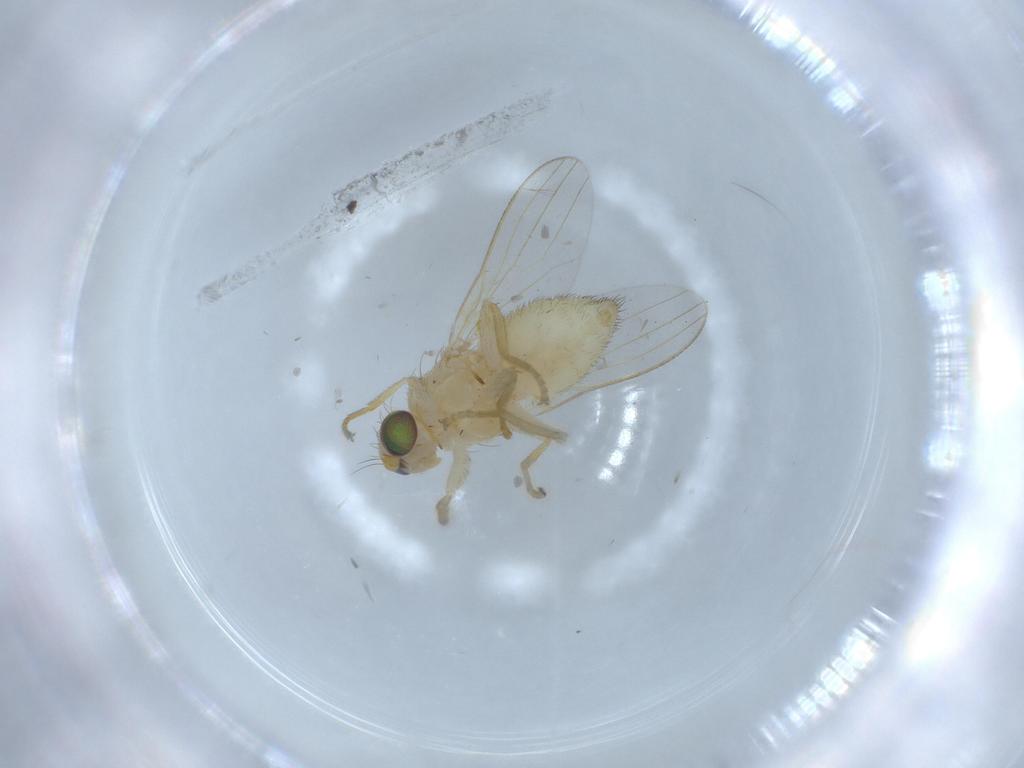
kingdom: Animalia
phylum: Arthropoda
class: Insecta
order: Diptera
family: Chyromyidae
